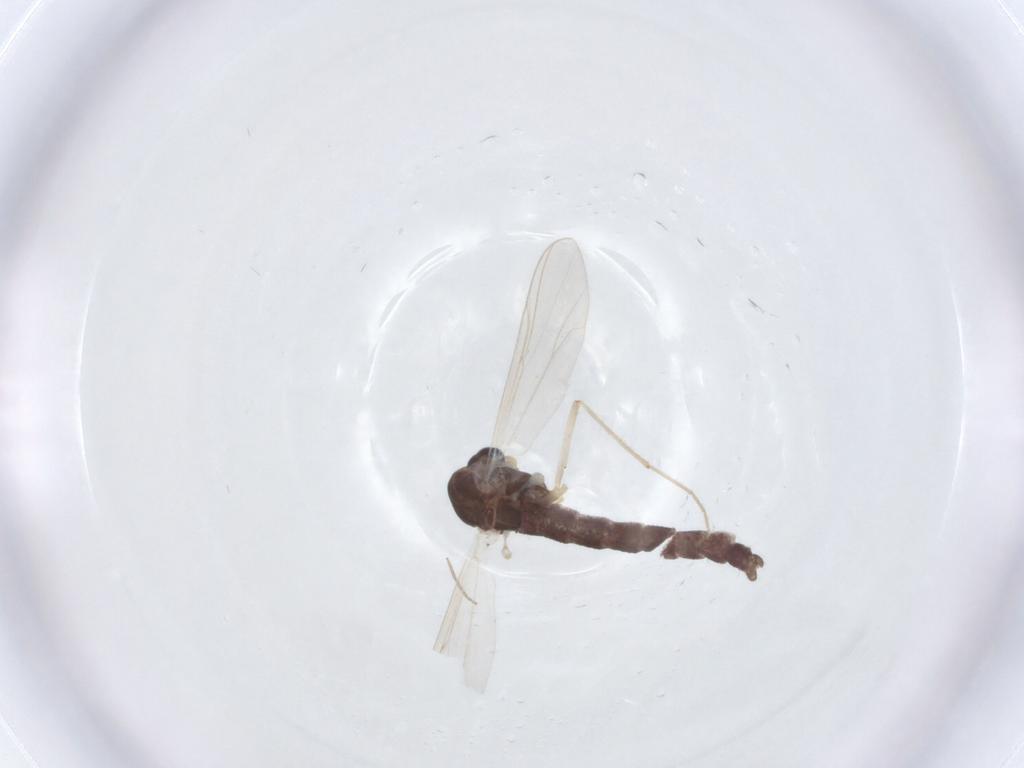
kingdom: Animalia
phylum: Arthropoda
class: Insecta
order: Diptera
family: Chironomidae
